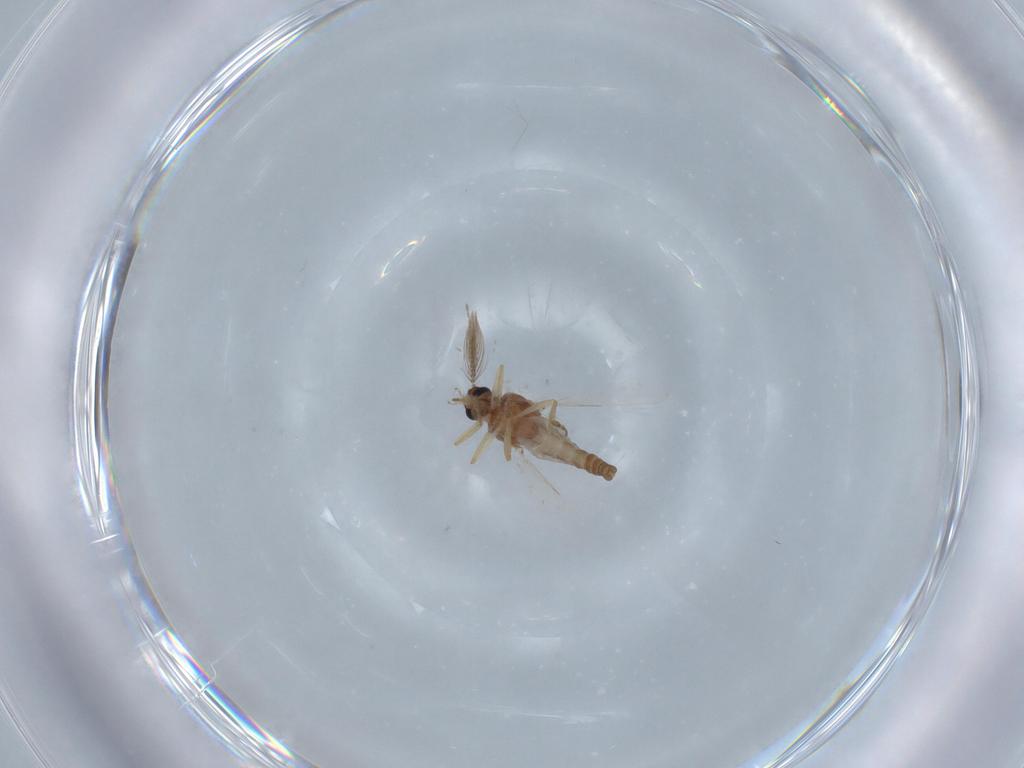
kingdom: Animalia
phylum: Arthropoda
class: Insecta
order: Diptera
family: Ceratopogonidae
